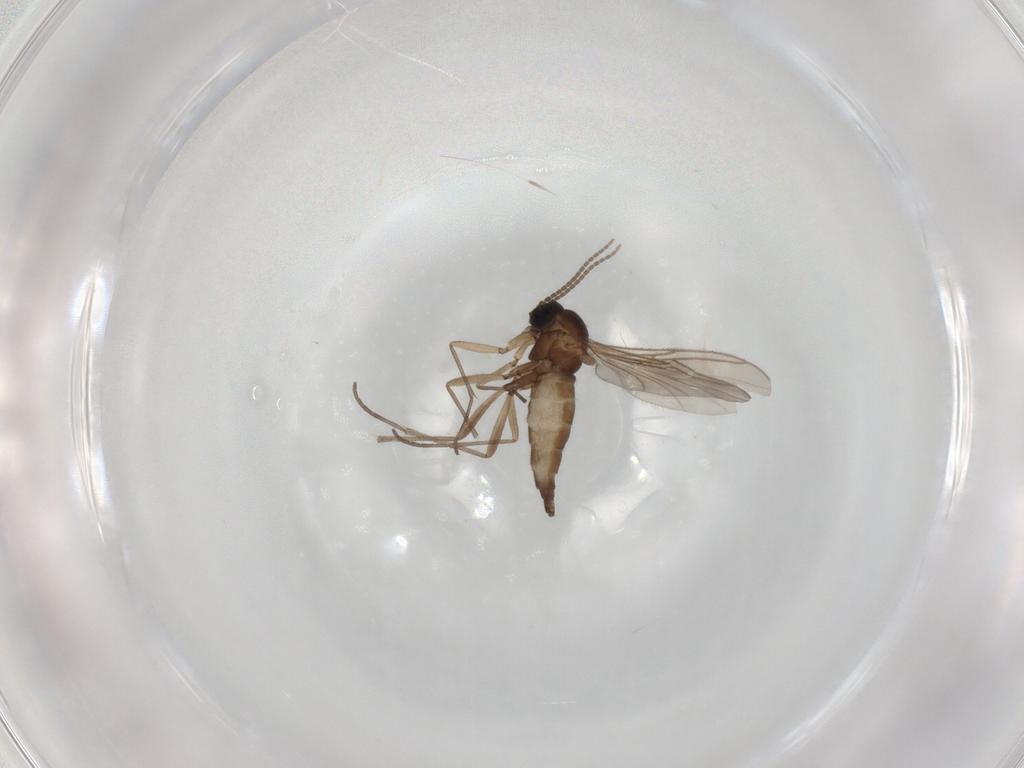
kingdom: Animalia
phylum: Arthropoda
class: Insecta
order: Diptera
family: Sciaridae
